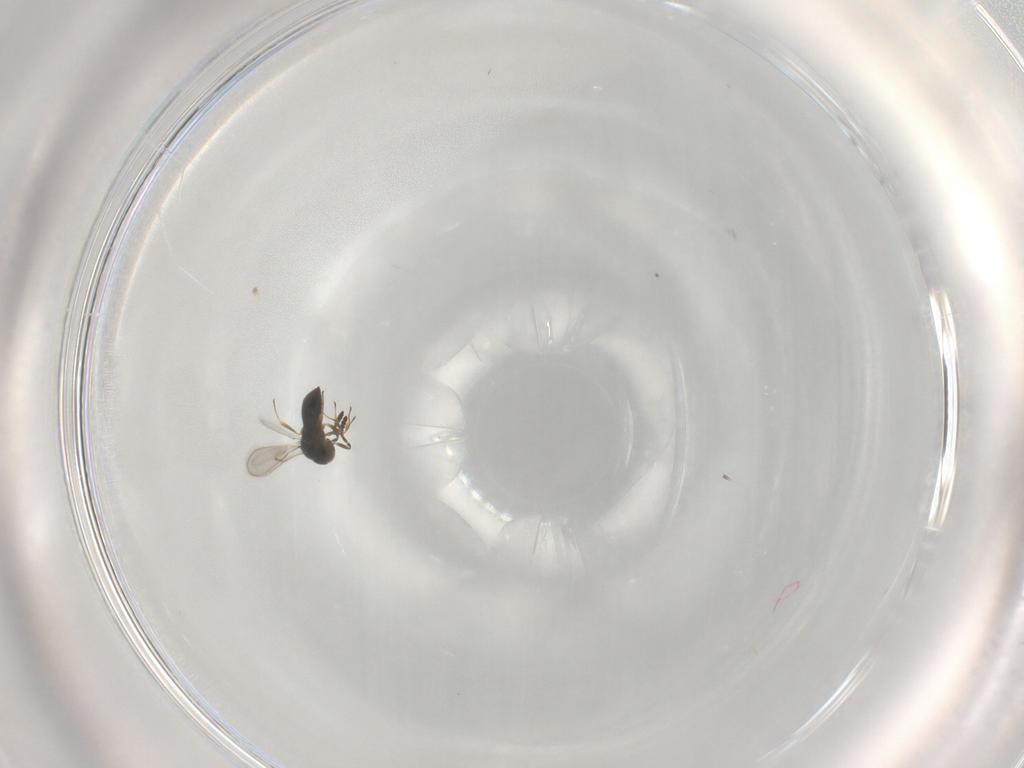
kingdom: Animalia
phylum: Arthropoda
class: Insecta
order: Hymenoptera
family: Scelionidae
